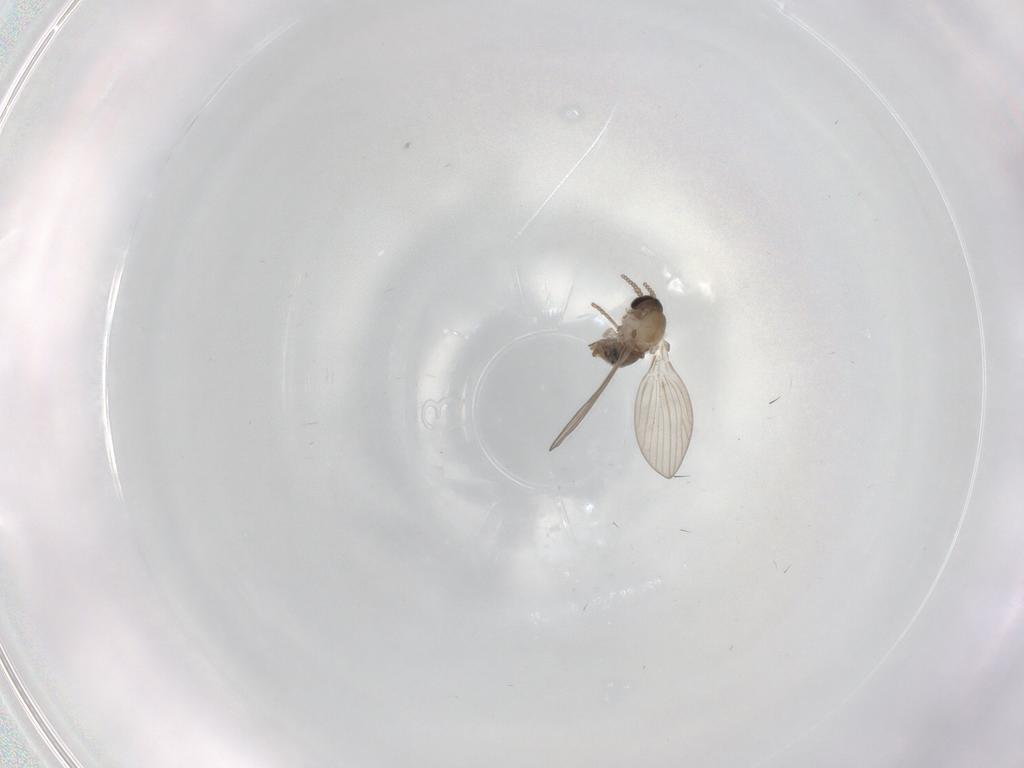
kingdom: Animalia
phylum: Arthropoda
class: Insecta
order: Diptera
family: Psychodidae
